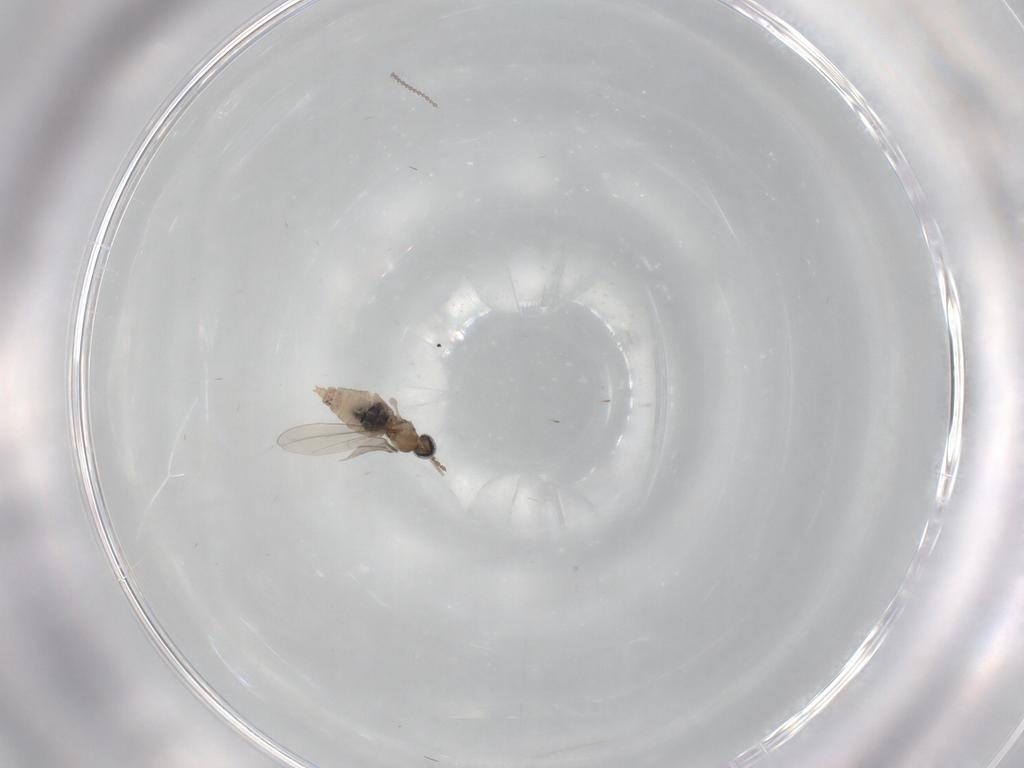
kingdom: Animalia
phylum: Arthropoda
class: Insecta
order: Diptera
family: Cecidomyiidae
